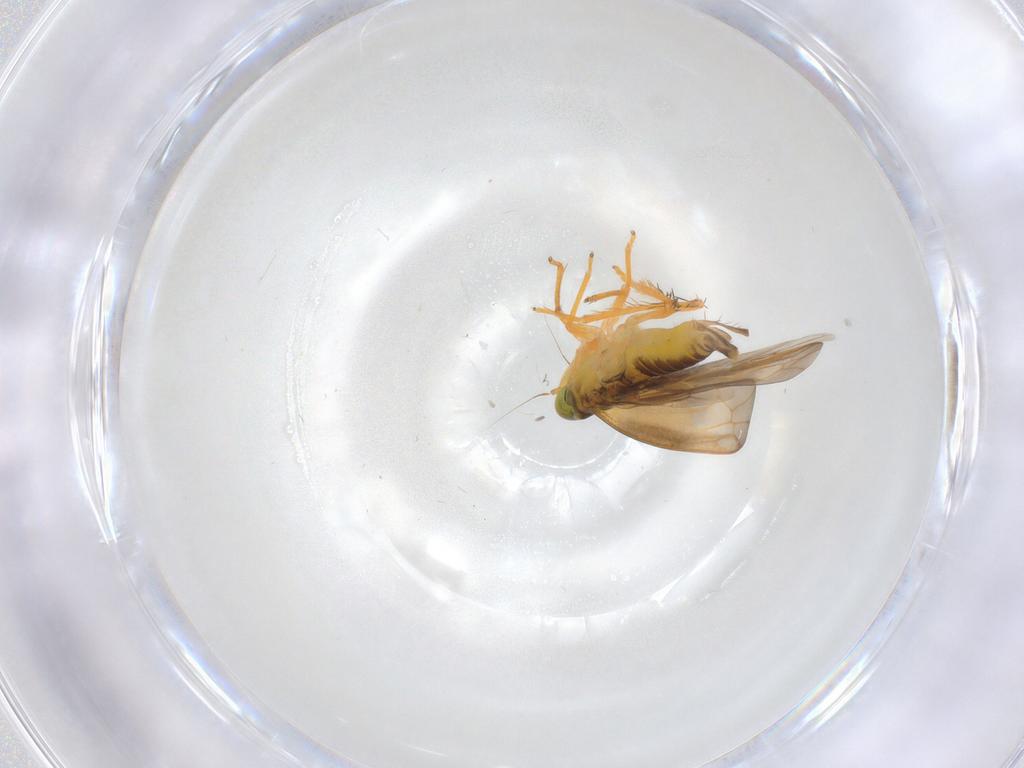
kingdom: Animalia
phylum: Arthropoda
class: Insecta
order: Hemiptera
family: Cicadellidae
